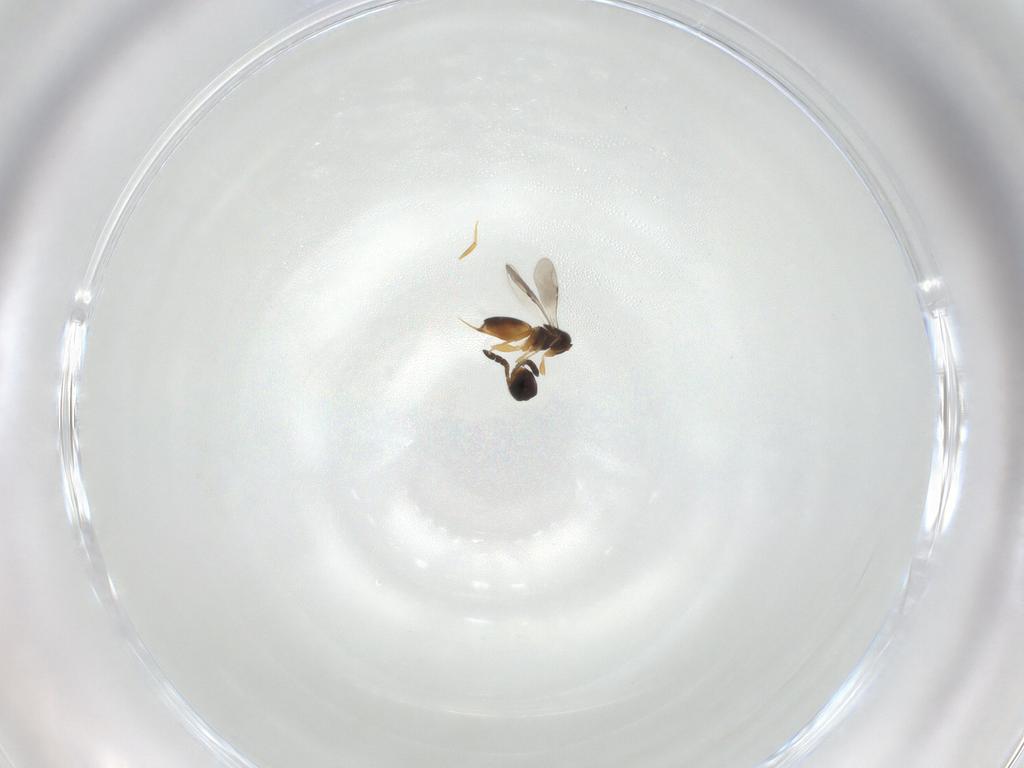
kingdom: Animalia
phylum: Arthropoda
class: Insecta
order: Hymenoptera
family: Ceraphronidae
